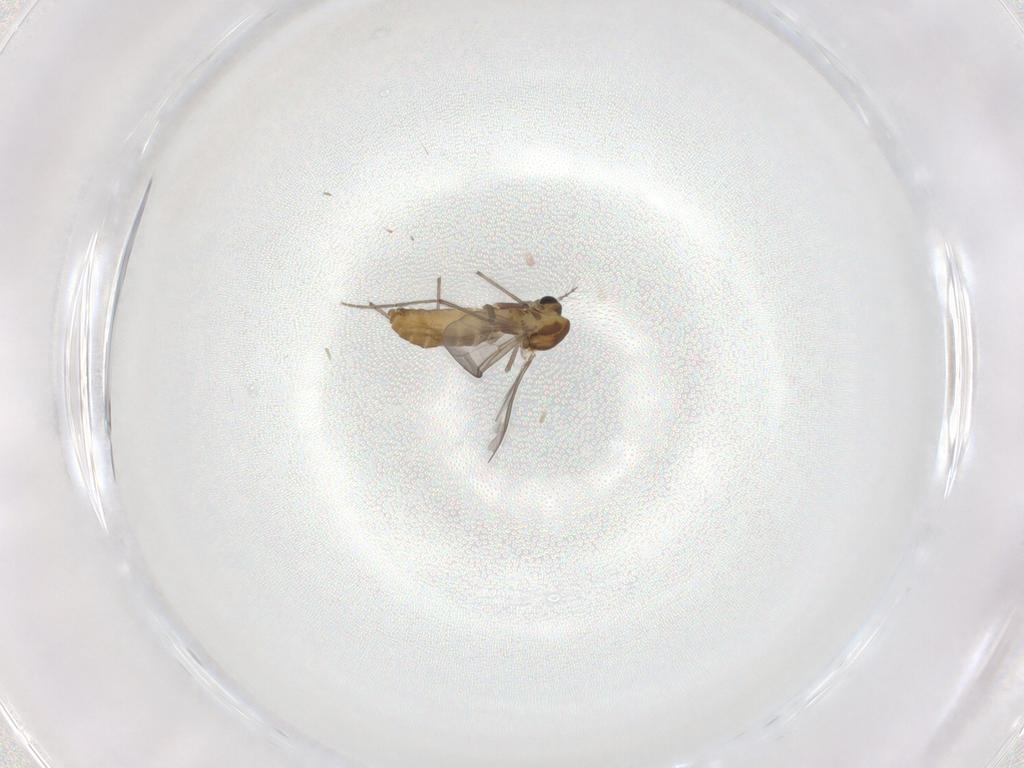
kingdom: Animalia
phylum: Arthropoda
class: Insecta
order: Diptera
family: Chironomidae
